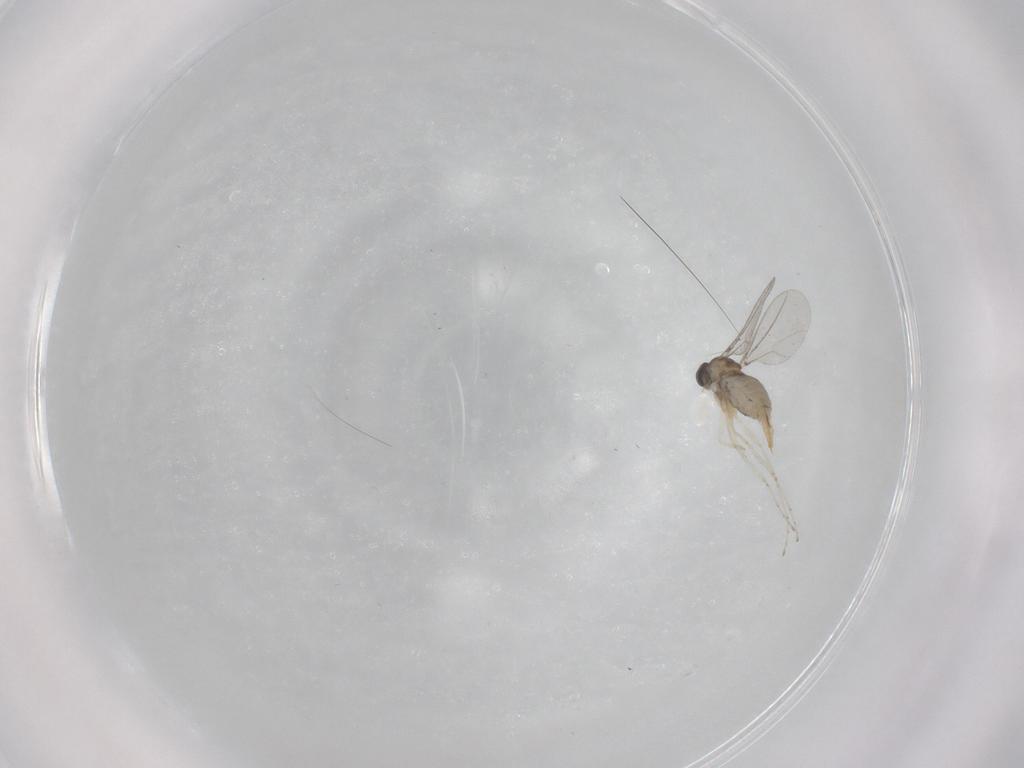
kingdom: Animalia
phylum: Arthropoda
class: Insecta
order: Diptera
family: Cecidomyiidae
